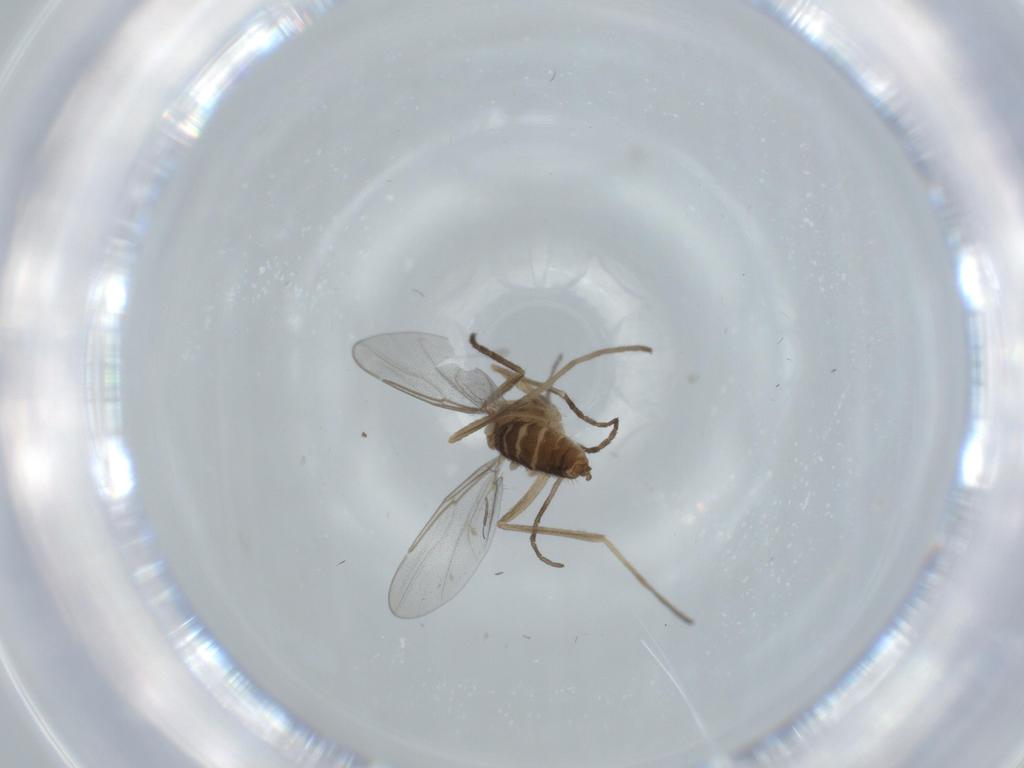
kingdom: Animalia
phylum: Arthropoda
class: Insecta
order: Diptera
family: Cecidomyiidae
